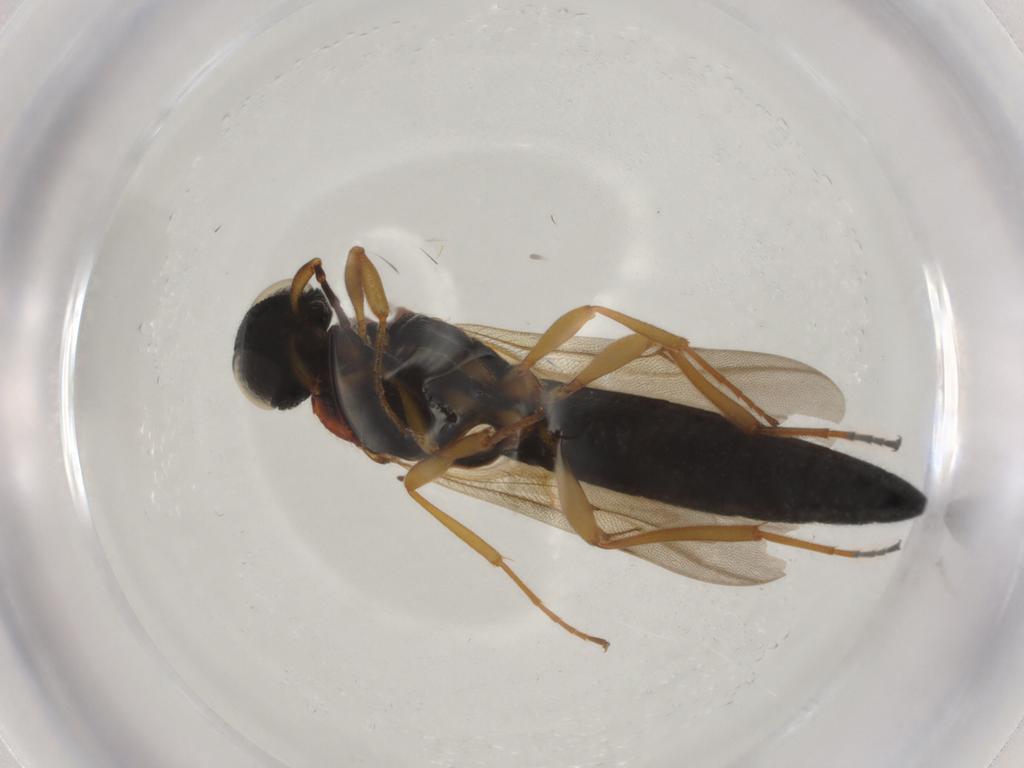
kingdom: Animalia
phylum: Arthropoda
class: Insecta
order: Hymenoptera
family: Scelionidae
